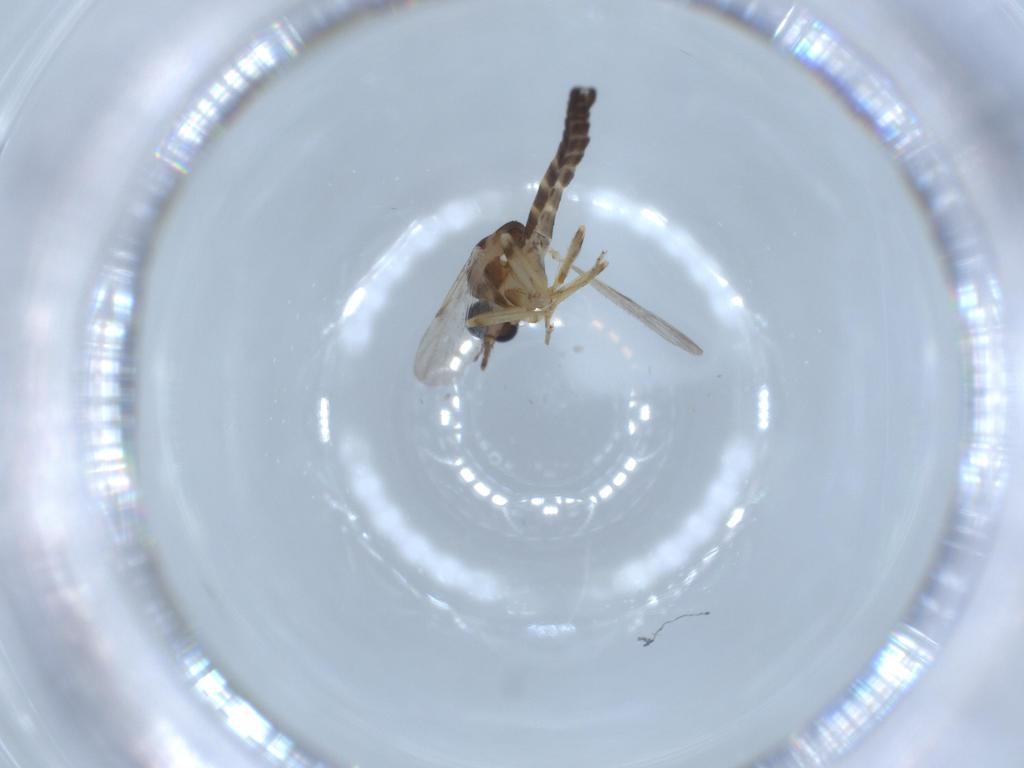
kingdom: Animalia
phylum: Arthropoda
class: Insecta
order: Diptera
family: Ceratopogonidae
